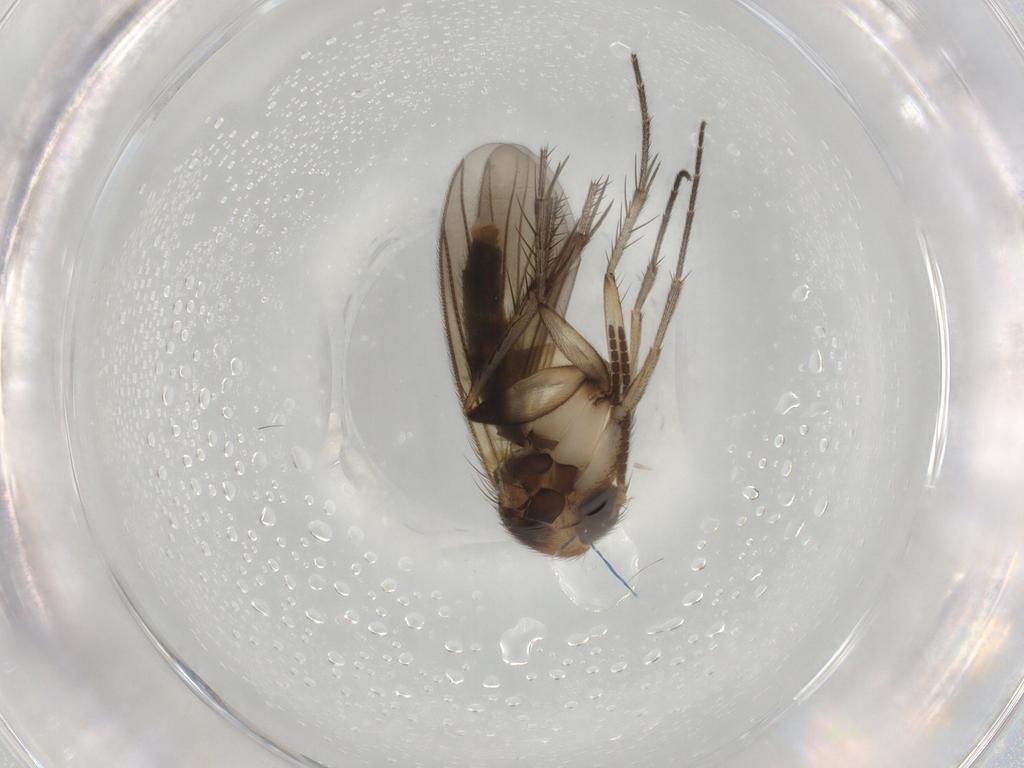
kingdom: Animalia
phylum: Arthropoda
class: Insecta
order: Diptera
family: Mycetophilidae
